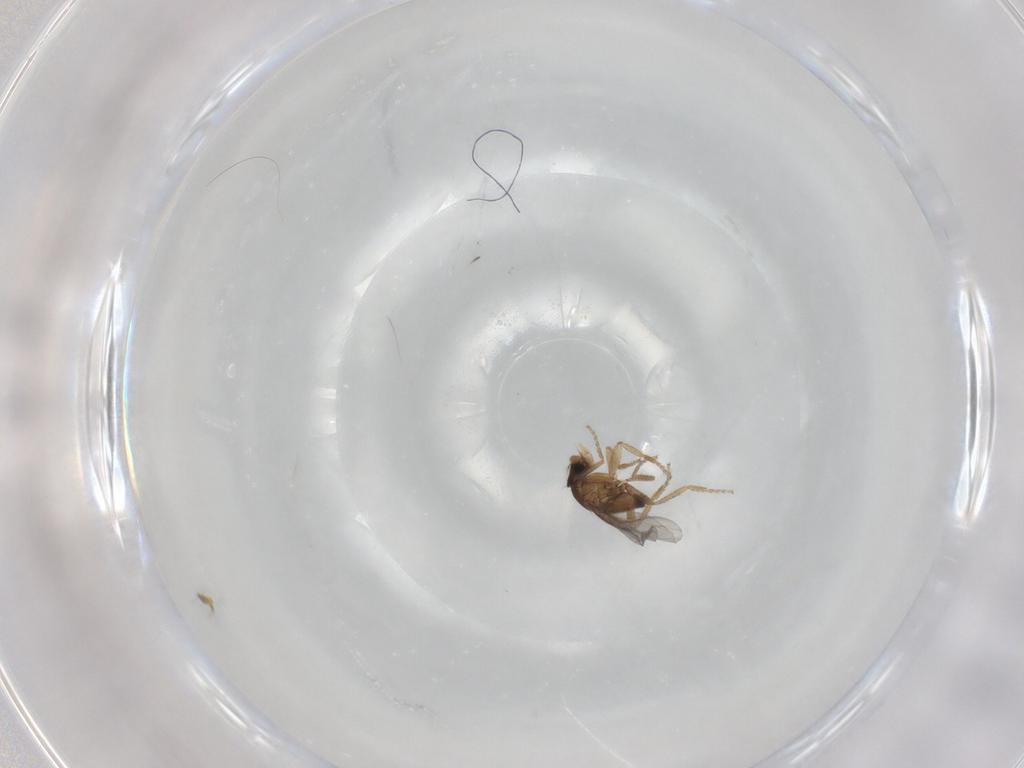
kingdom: Animalia
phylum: Arthropoda
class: Insecta
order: Diptera
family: Phoridae
